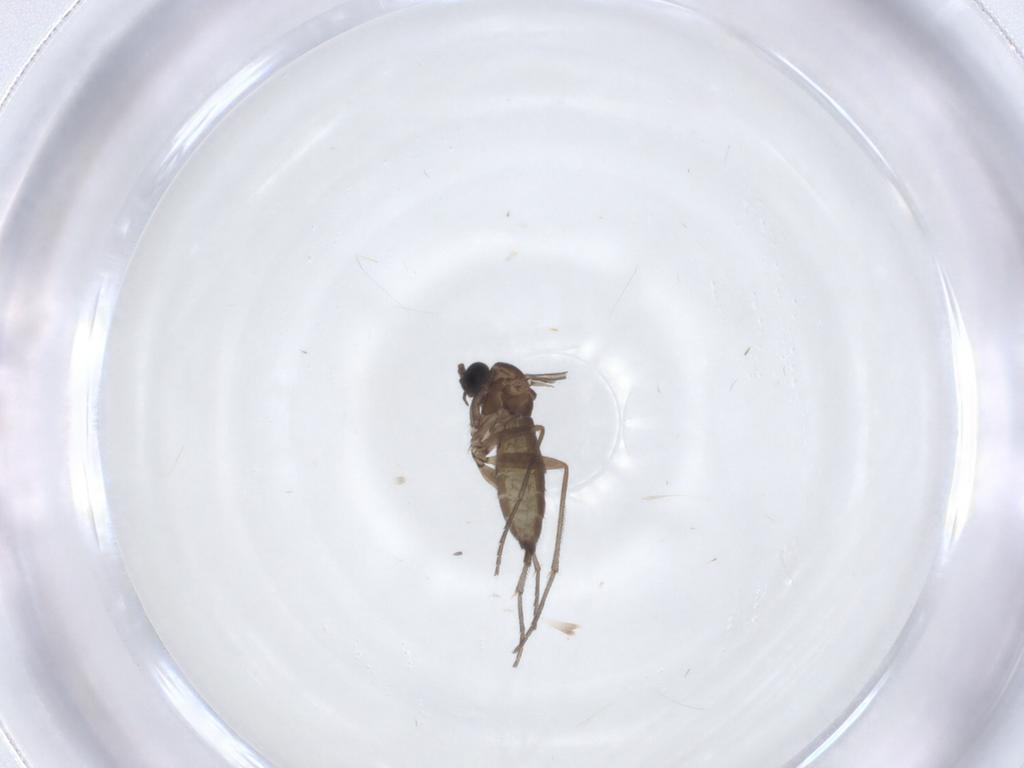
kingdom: Animalia
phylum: Arthropoda
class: Insecta
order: Diptera
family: Sciaridae
